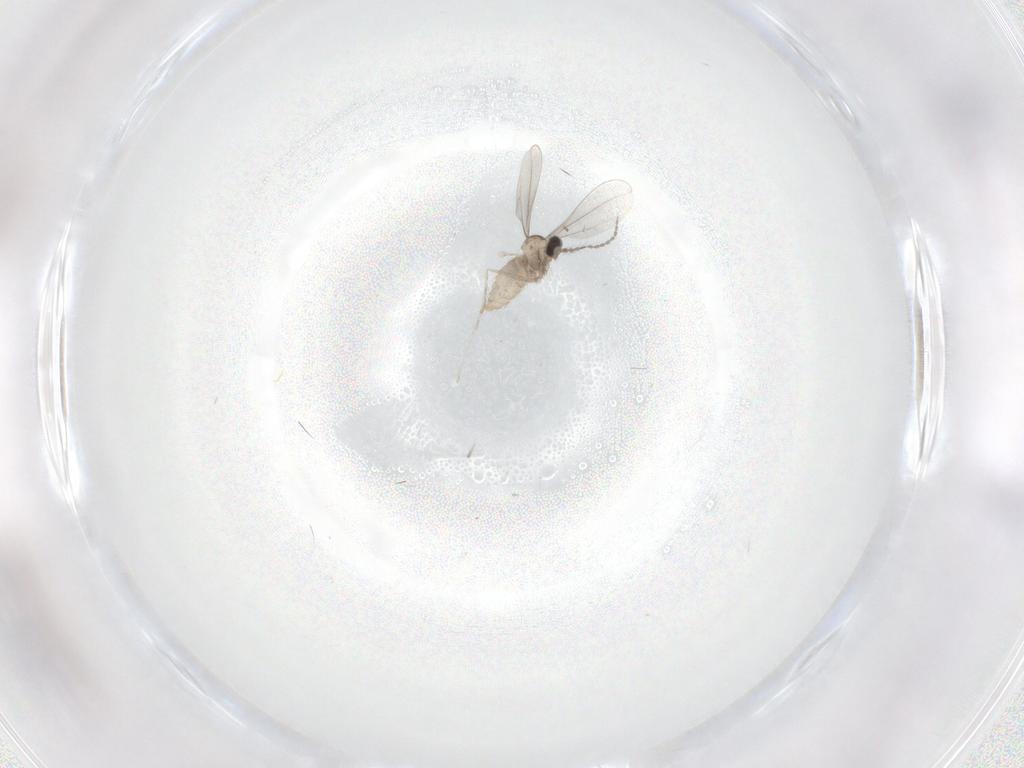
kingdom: Animalia
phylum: Arthropoda
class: Insecta
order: Diptera
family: Cecidomyiidae
